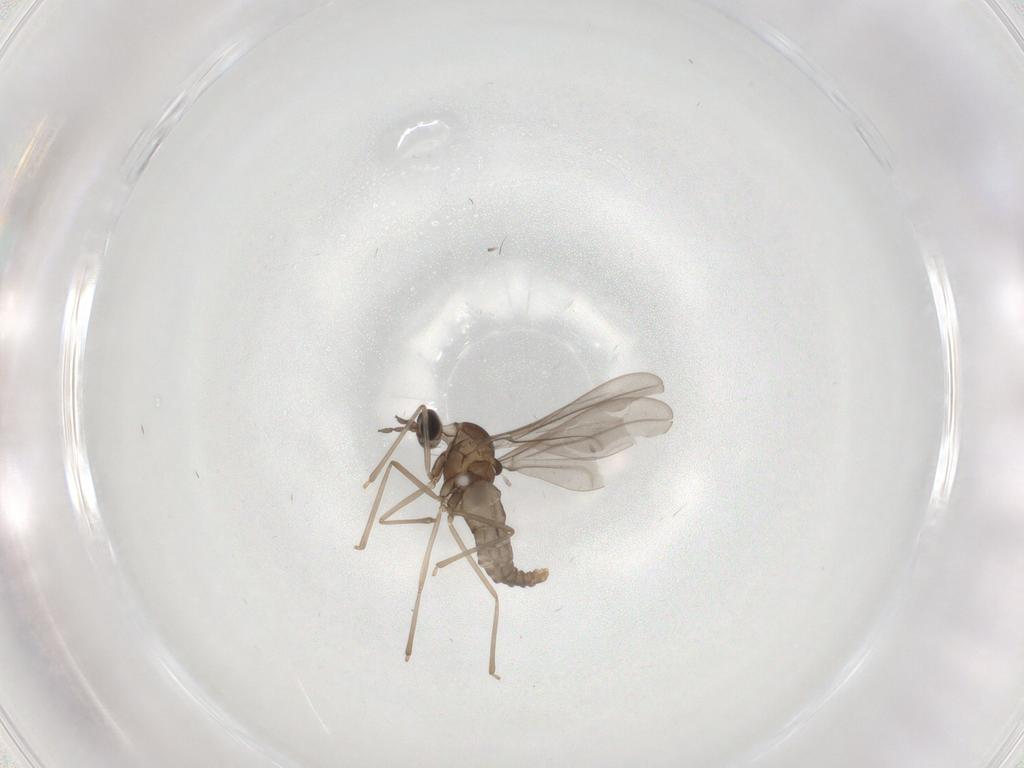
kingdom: Animalia
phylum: Arthropoda
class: Insecta
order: Diptera
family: Cecidomyiidae
